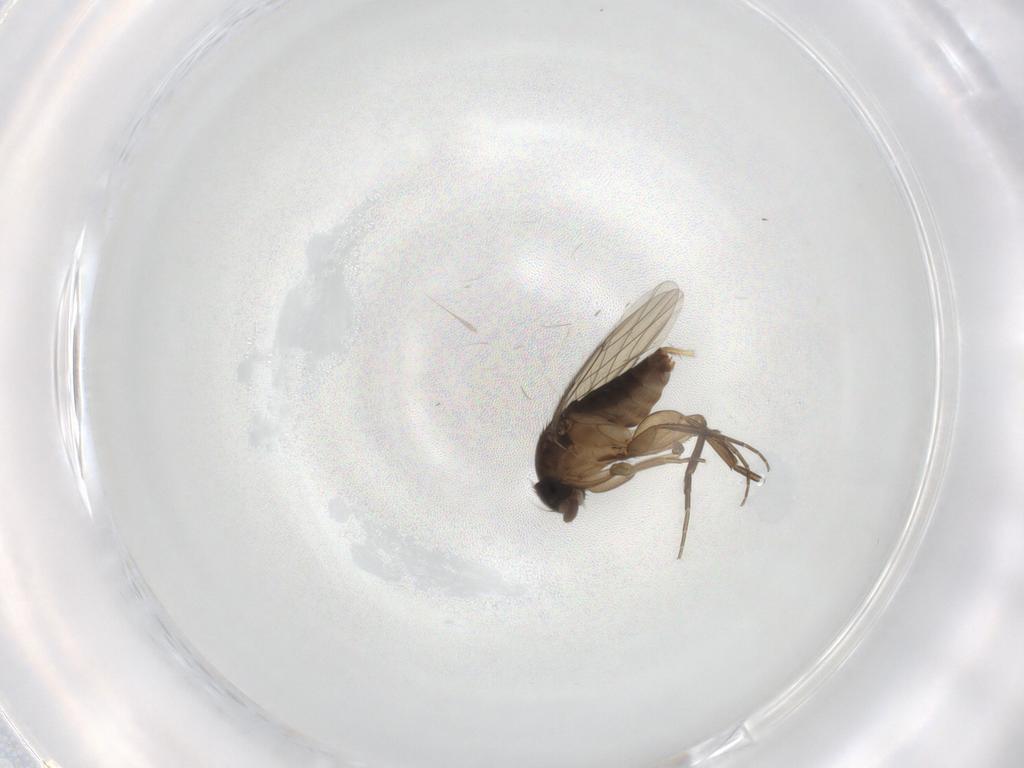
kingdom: Animalia
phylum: Arthropoda
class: Insecta
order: Diptera
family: Phoridae
